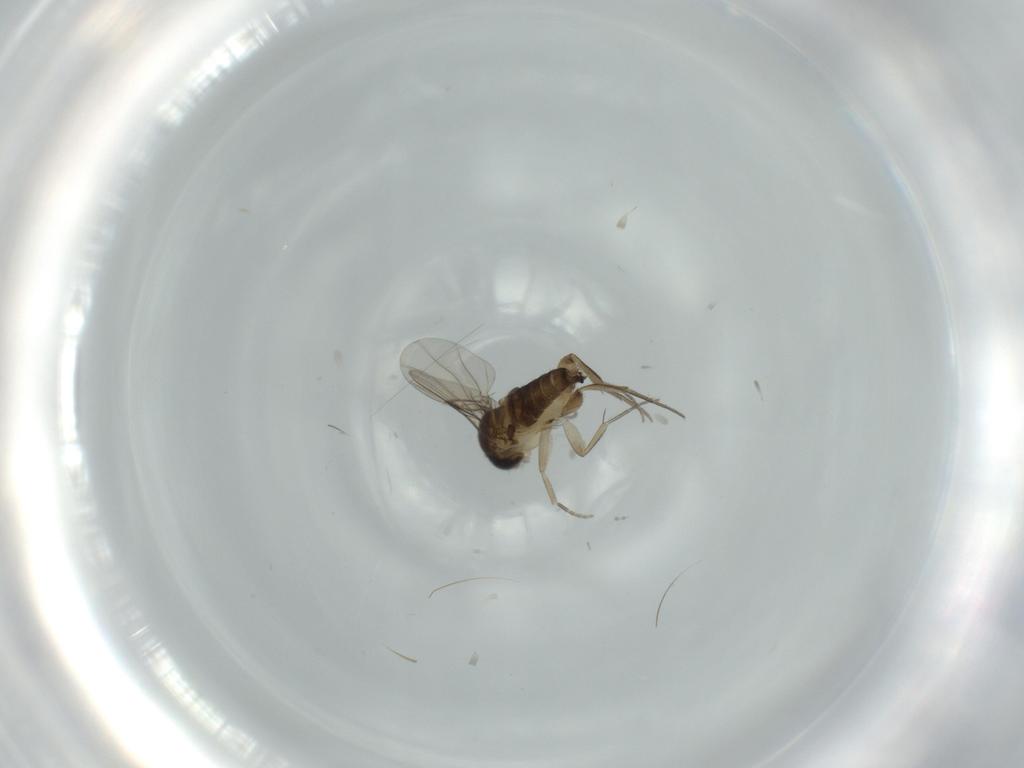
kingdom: Animalia
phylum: Arthropoda
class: Insecta
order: Diptera
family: Phoridae
